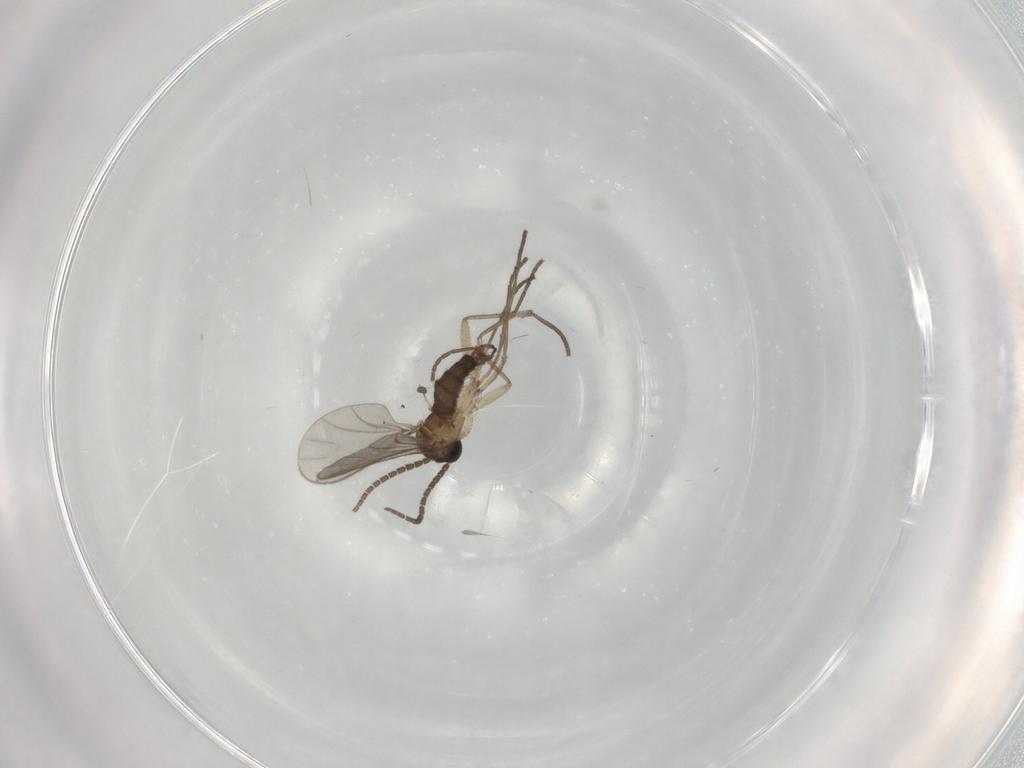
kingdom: Animalia
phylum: Arthropoda
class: Insecta
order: Diptera
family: Sciaridae
